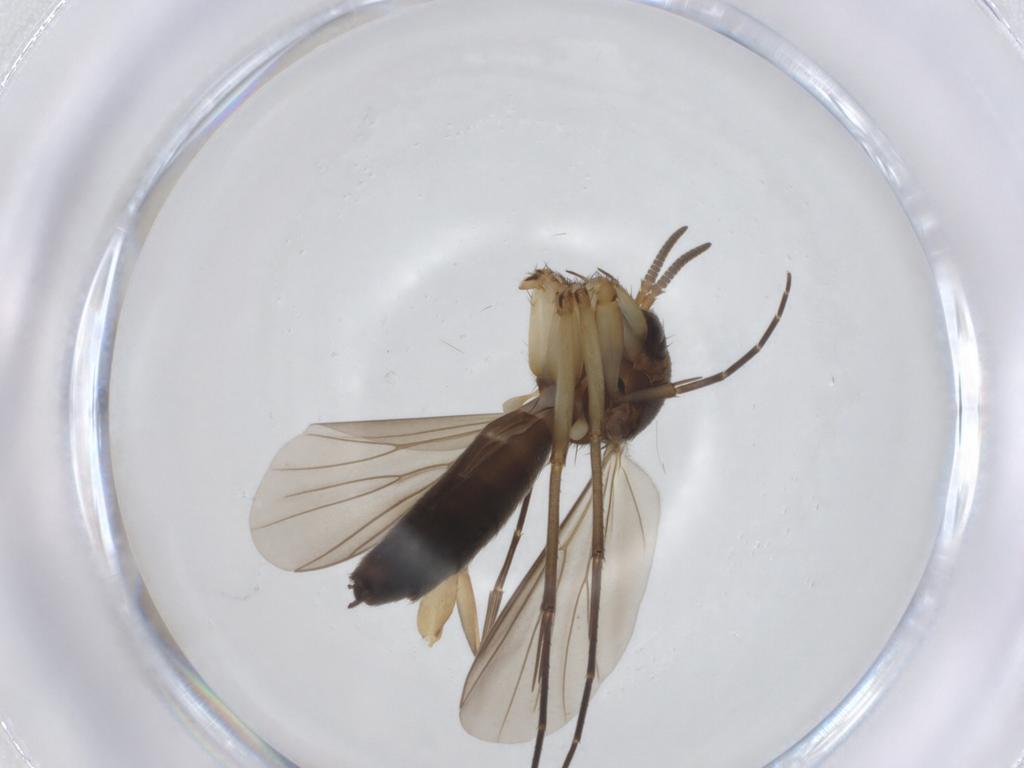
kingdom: Animalia
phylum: Arthropoda
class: Insecta
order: Diptera
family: Mycetophilidae
